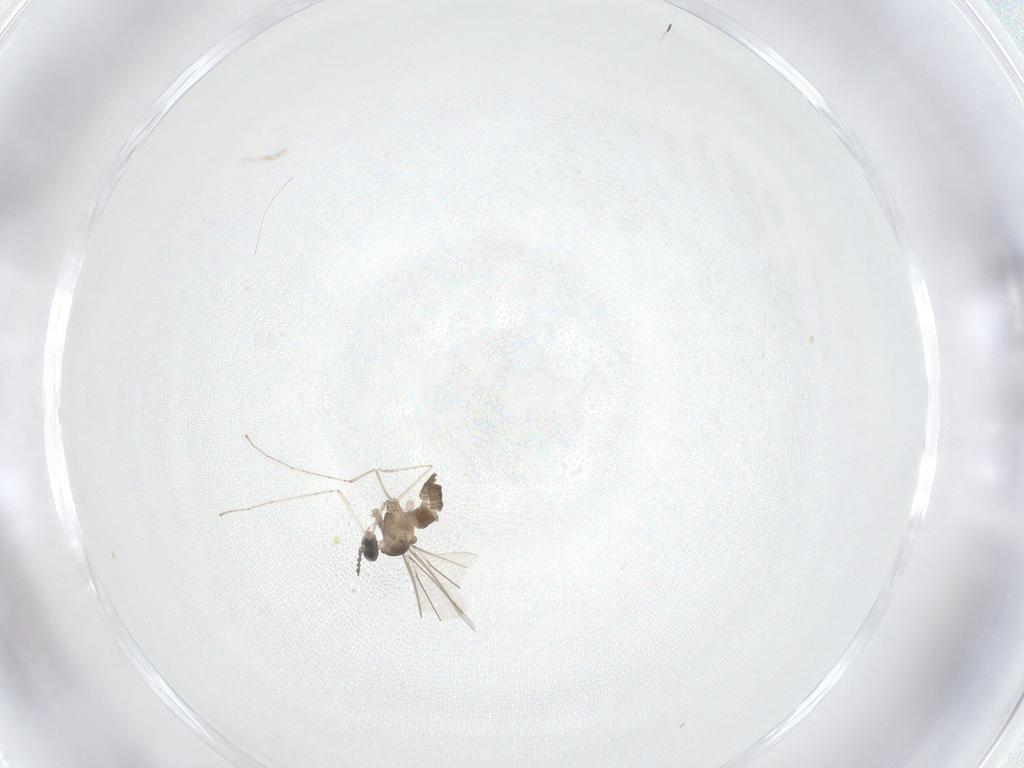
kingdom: Animalia
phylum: Arthropoda
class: Insecta
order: Diptera
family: Cecidomyiidae
